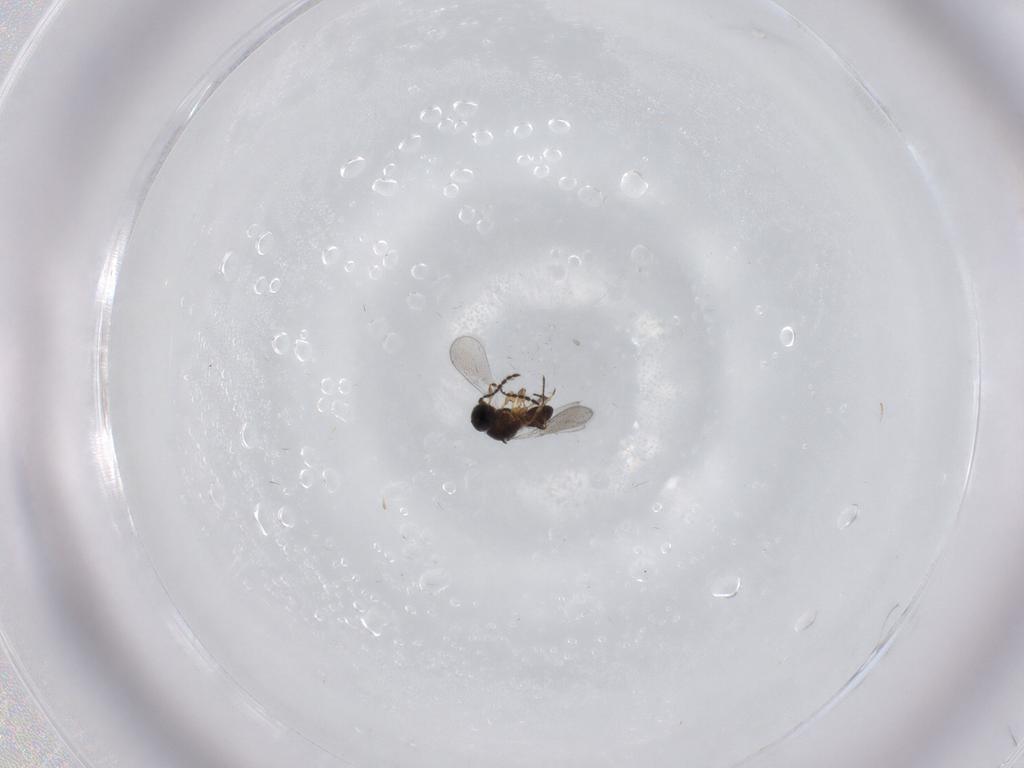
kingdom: Animalia
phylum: Arthropoda
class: Insecta
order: Hymenoptera
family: Platygastridae
